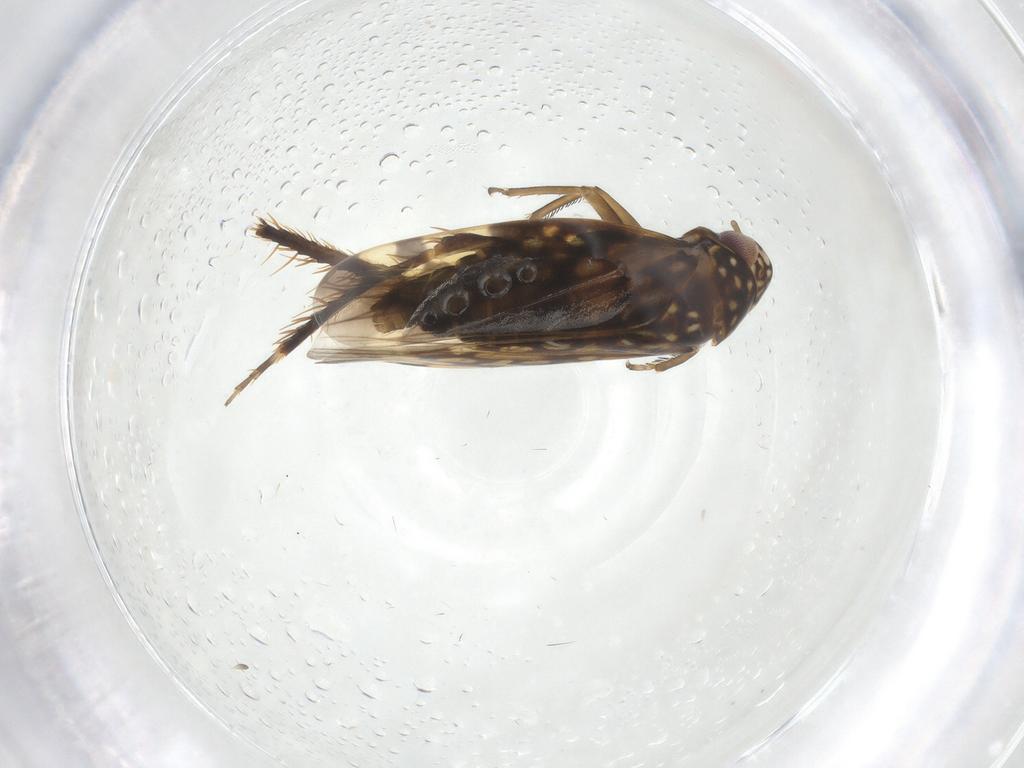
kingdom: Animalia
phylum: Arthropoda
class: Insecta
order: Hemiptera
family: Cicadellidae
